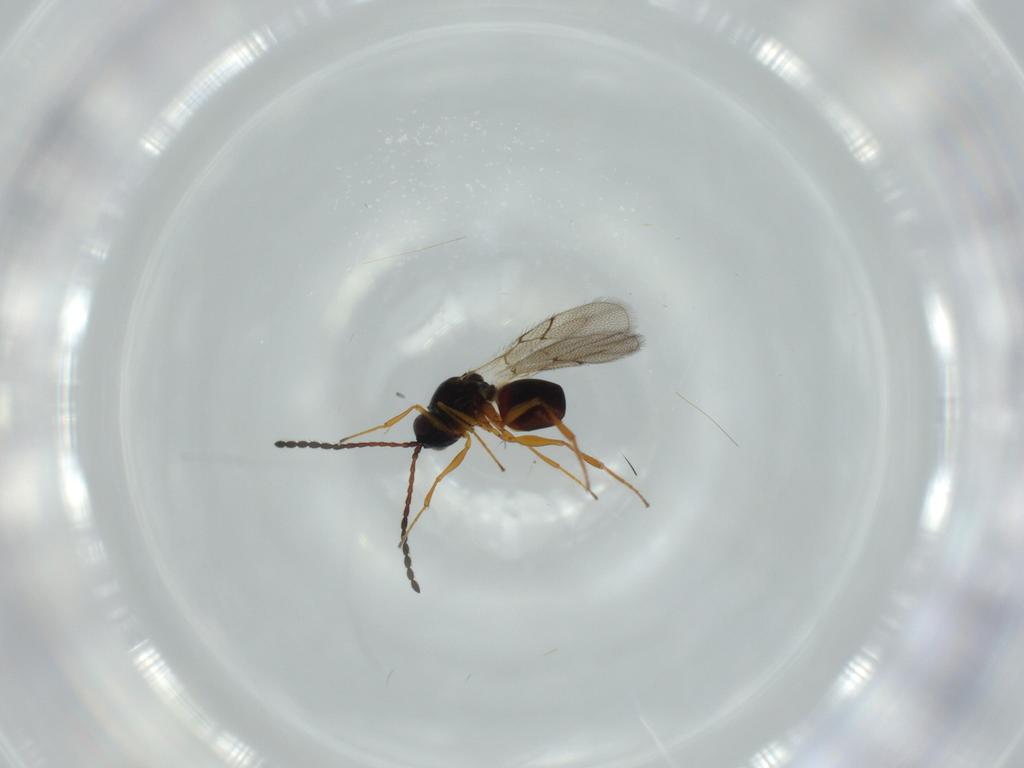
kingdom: Animalia
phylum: Arthropoda
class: Insecta
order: Hymenoptera
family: Figitidae
